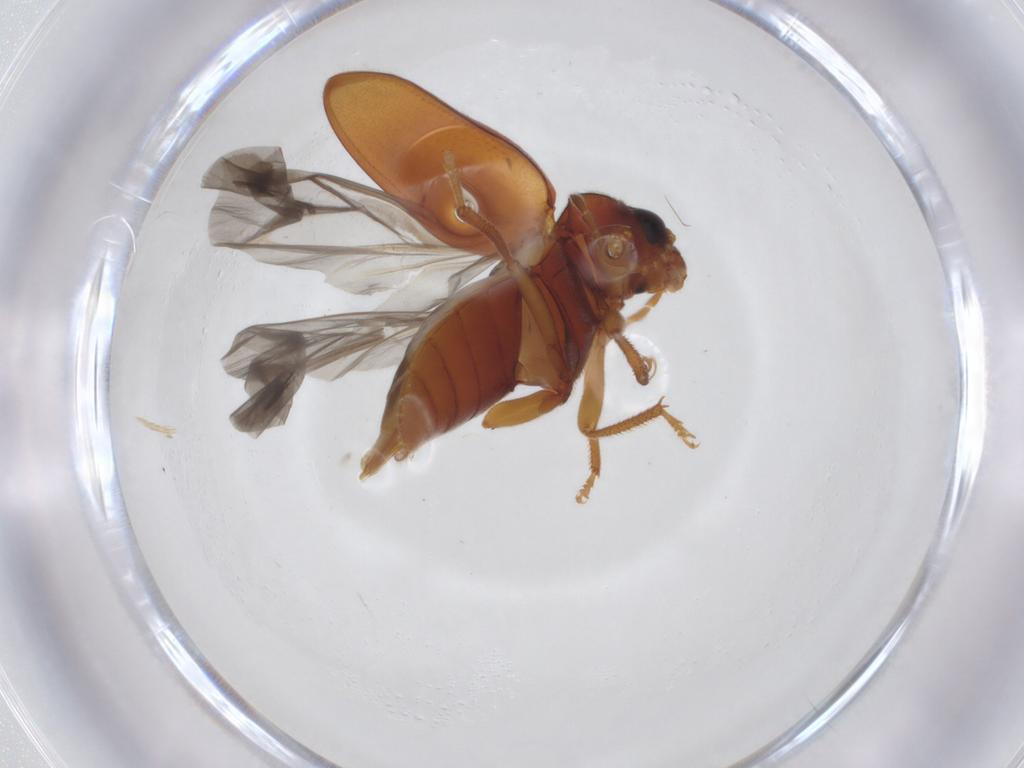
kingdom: Animalia
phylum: Arthropoda
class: Insecta
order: Coleoptera
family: Ptilodactylidae
